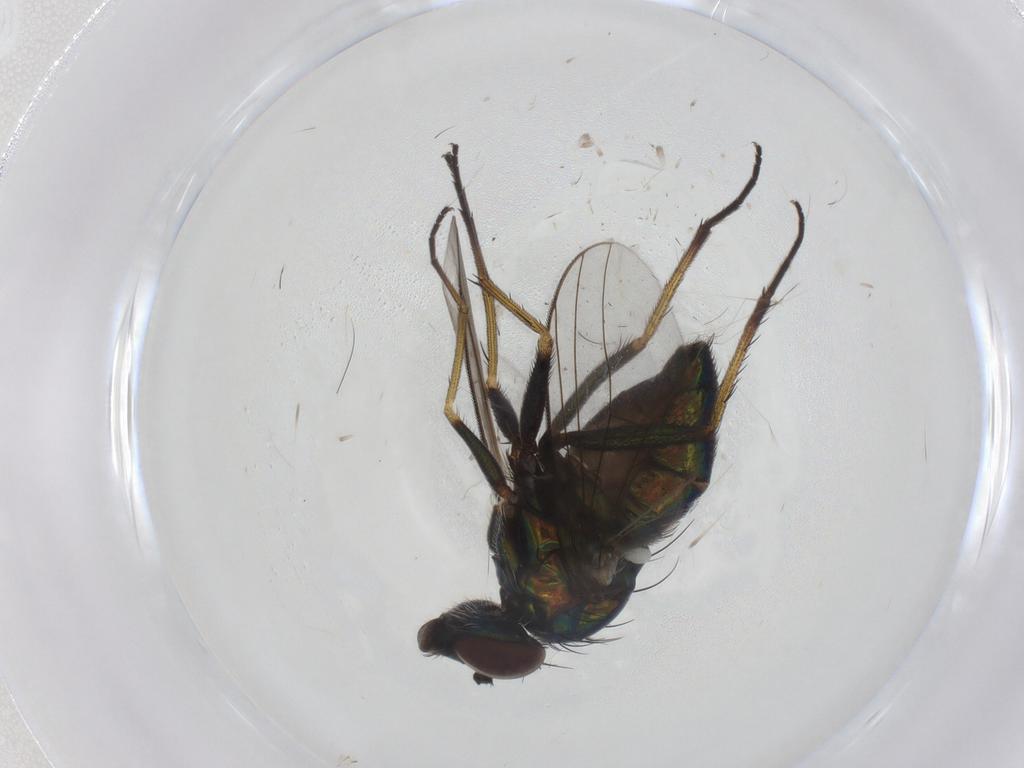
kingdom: Animalia
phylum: Arthropoda
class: Insecta
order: Diptera
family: Dolichopodidae
